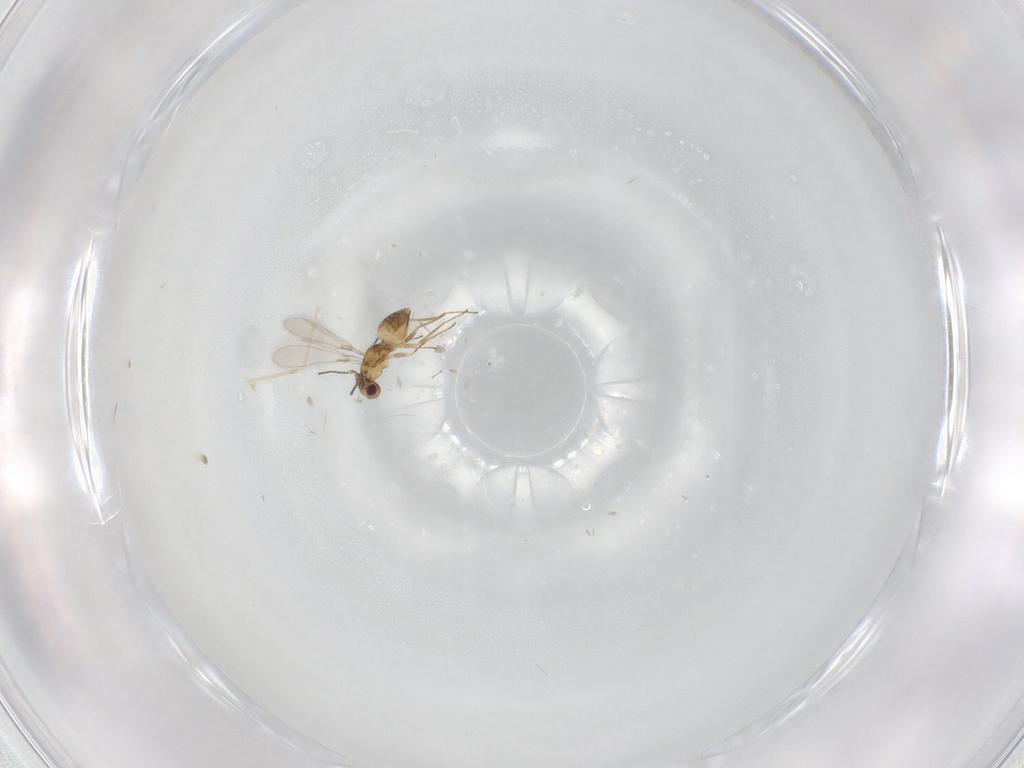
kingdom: Animalia
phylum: Arthropoda
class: Insecta
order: Hymenoptera
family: Mymaridae
